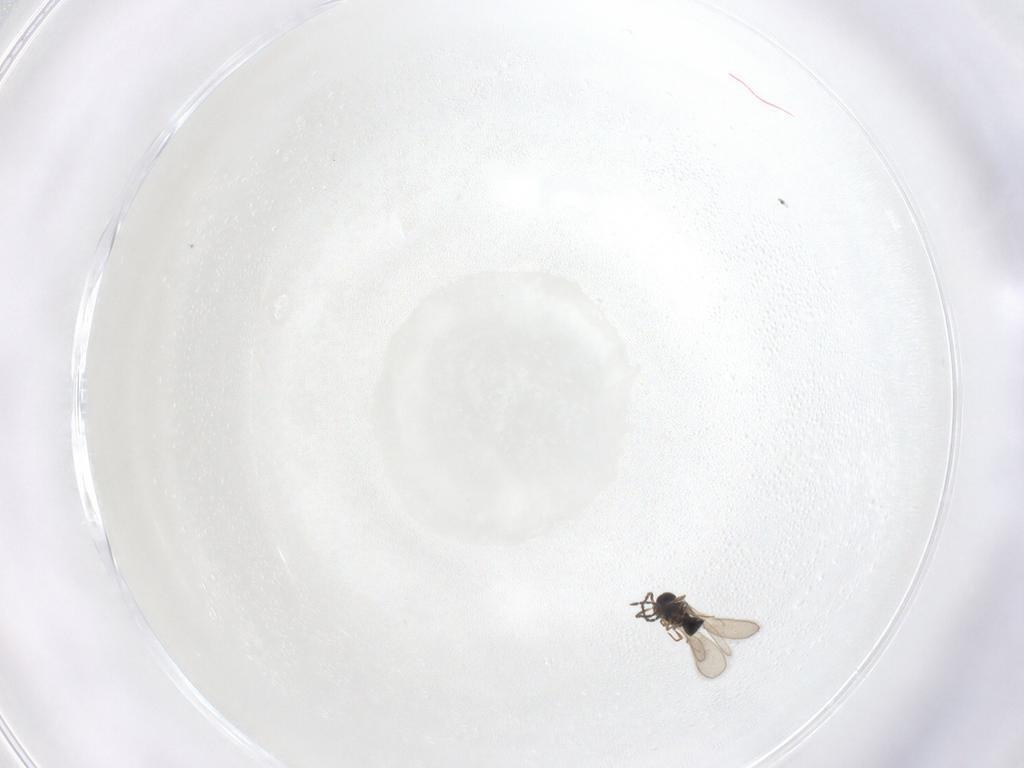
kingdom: Animalia
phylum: Arthropoda
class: Insecta
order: Hymenoptera
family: Scelionidae
